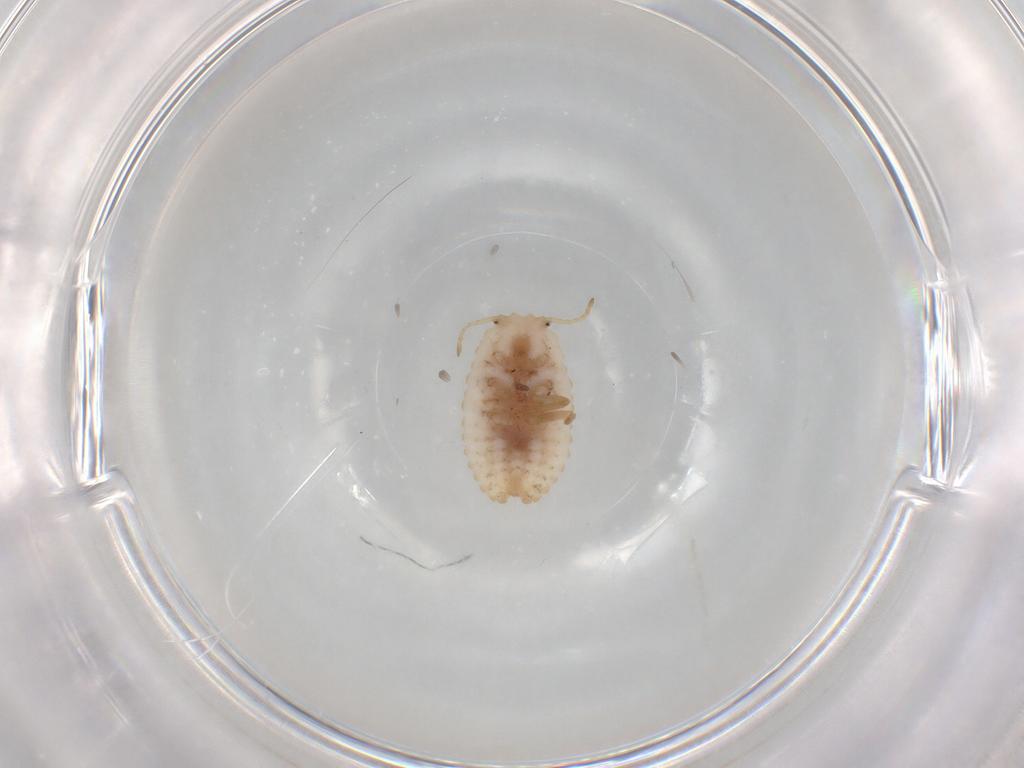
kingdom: Animalia
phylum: Arthropoda
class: Insecta
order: Hemiptera
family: Coccoidea_incertae_sedis
